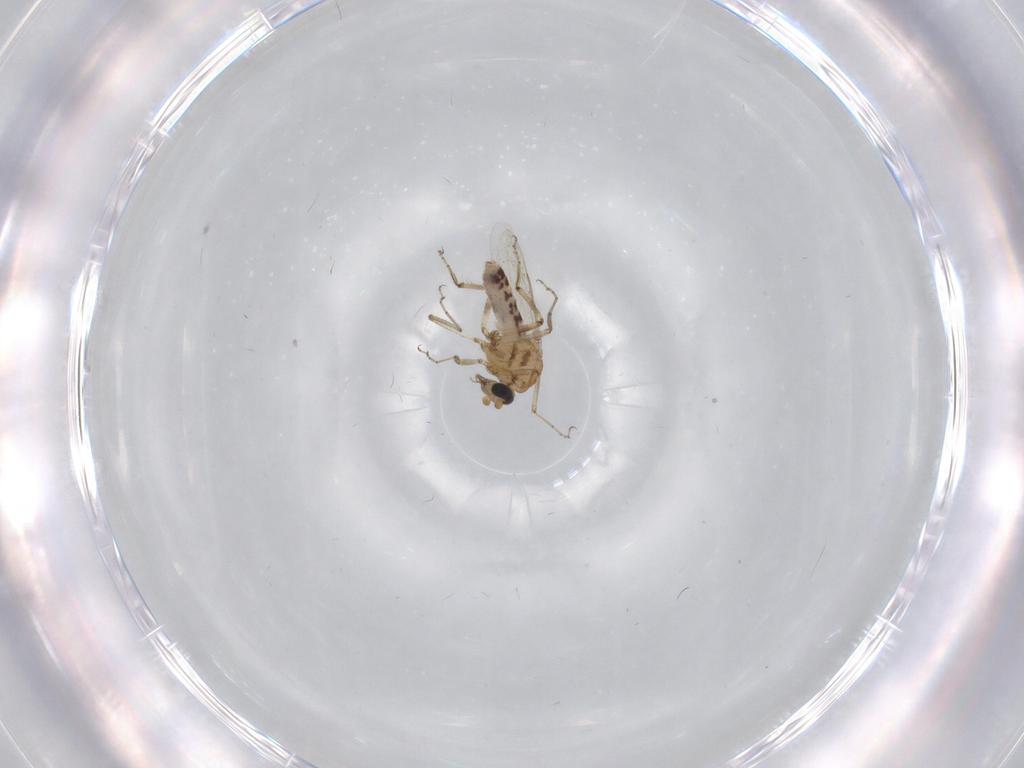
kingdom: Animalia
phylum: Arthropoda
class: Insecta
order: Diptera
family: Ceratopogonidae
